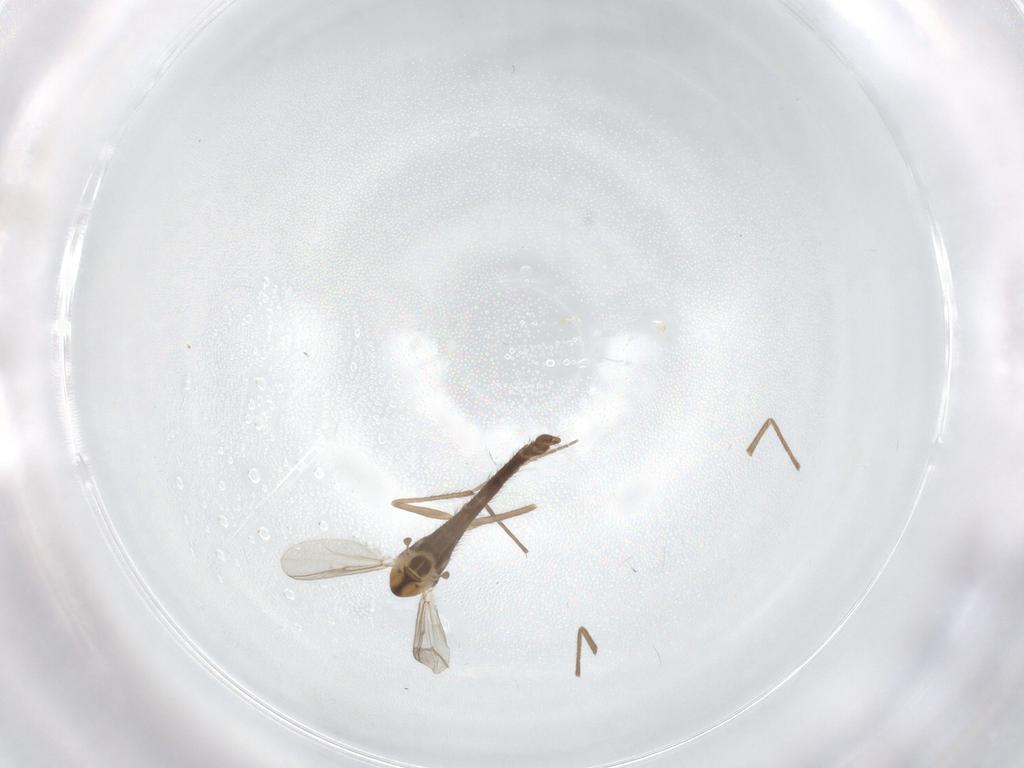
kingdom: Animalia
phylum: Arthropoda
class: Insecta
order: Diptera
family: Chironomidae
